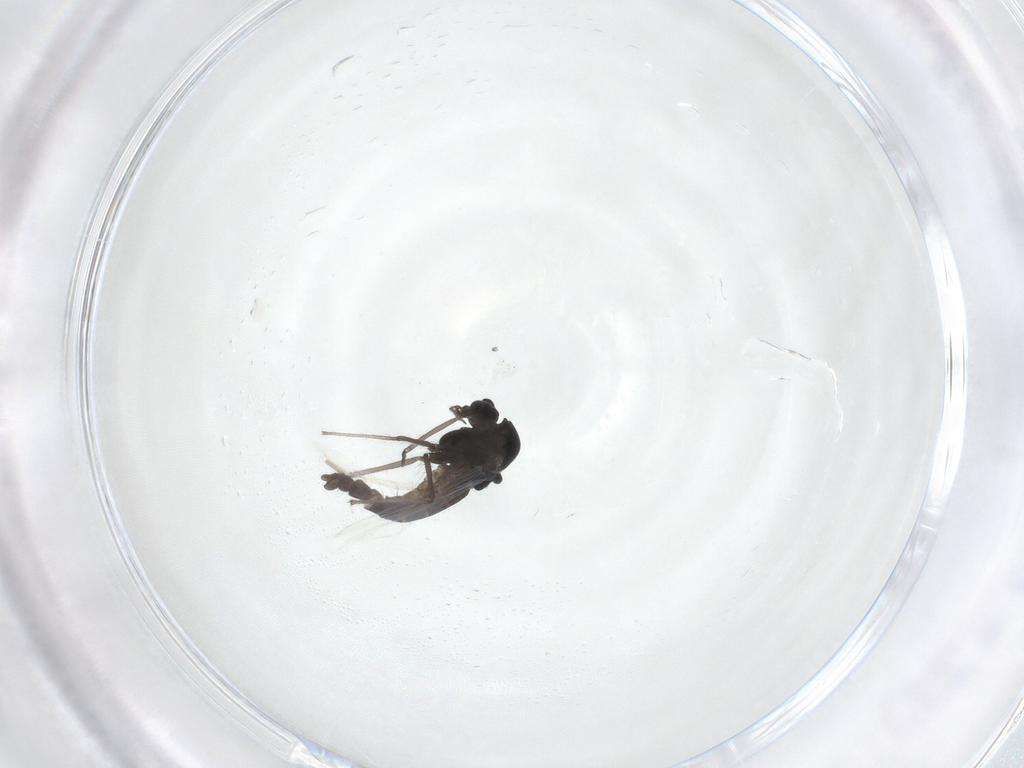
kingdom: Animalia
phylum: Arthropoda
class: Insecta
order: Diptera
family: Chironomidae
